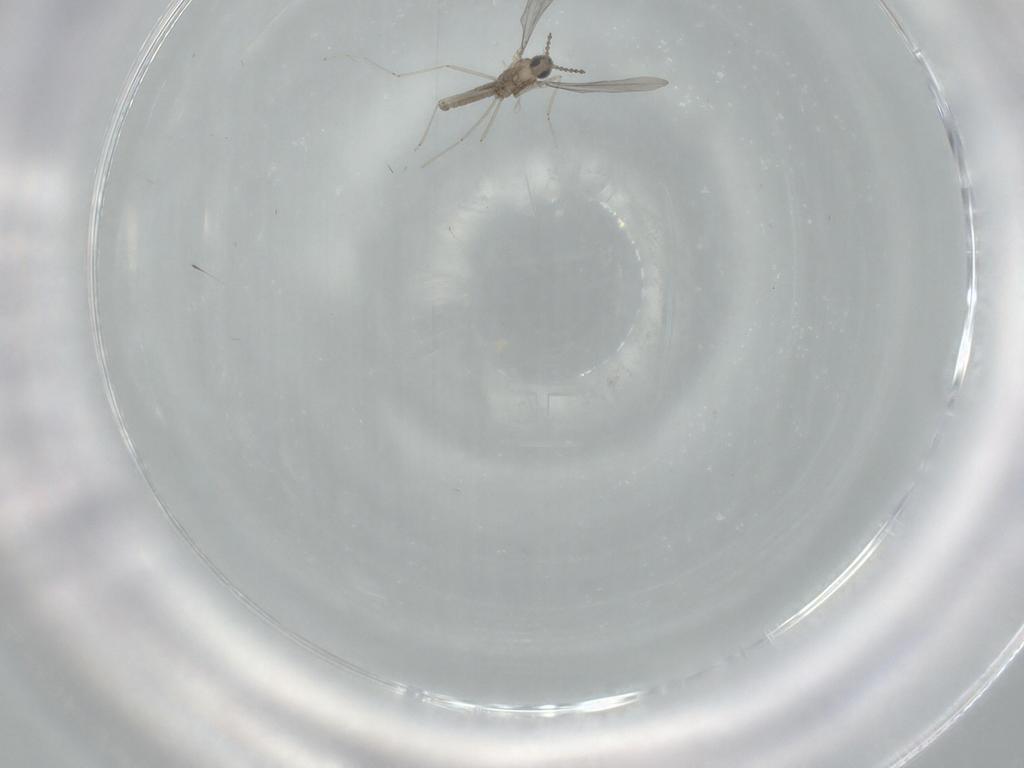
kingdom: Animalia
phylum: Arthropoda
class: Insecta
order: Diptera
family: Cecidomyiidae
